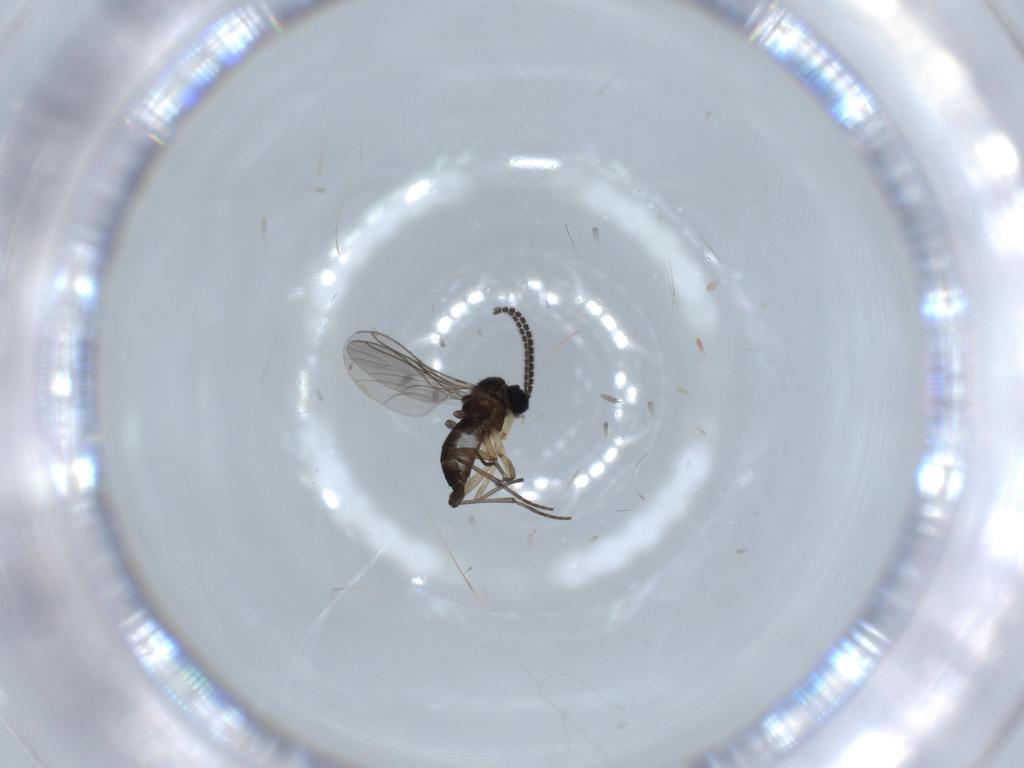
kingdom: Animalia
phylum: Arthropoda
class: Insecta
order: Diptera
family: Sciaridae
